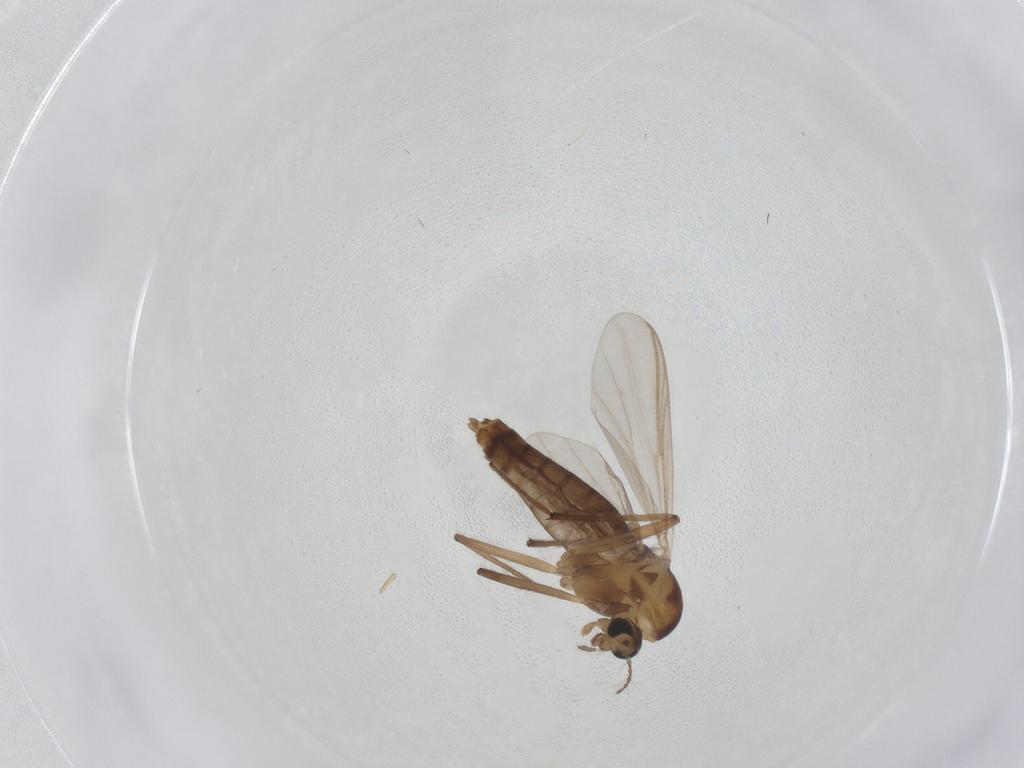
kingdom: Animalia
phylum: Arthropoda
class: Insecta
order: Diptera
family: Chironomidae
